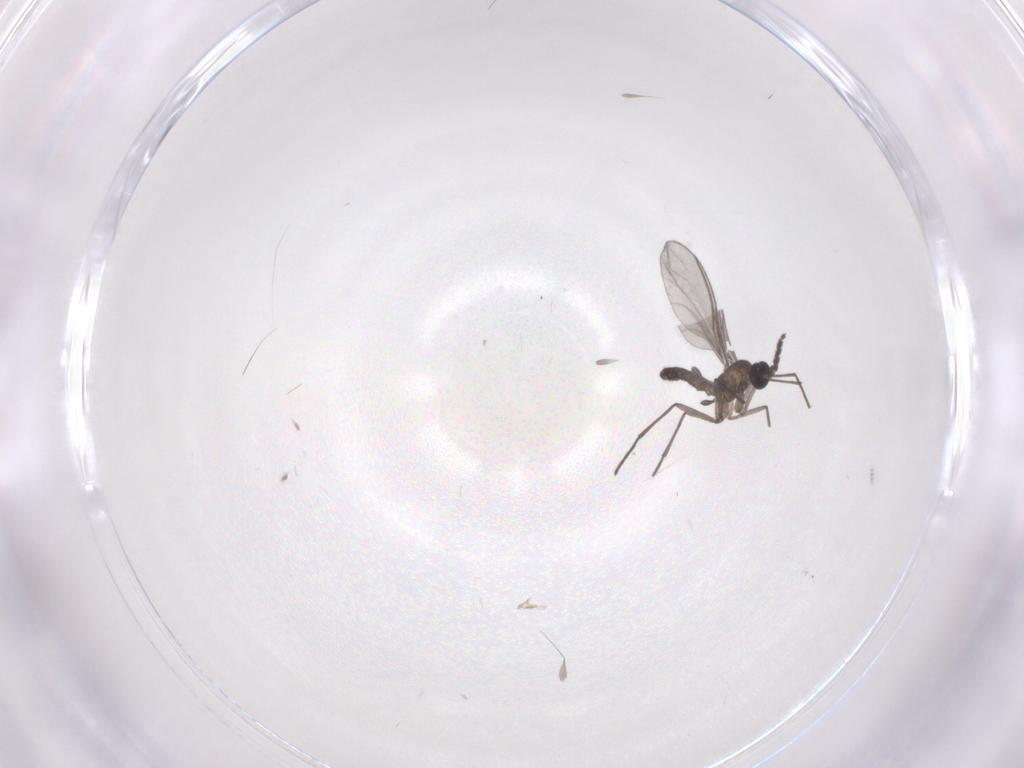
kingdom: Animalia
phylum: Arthropoda
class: Insecta
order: Diptera
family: Sciaridae
